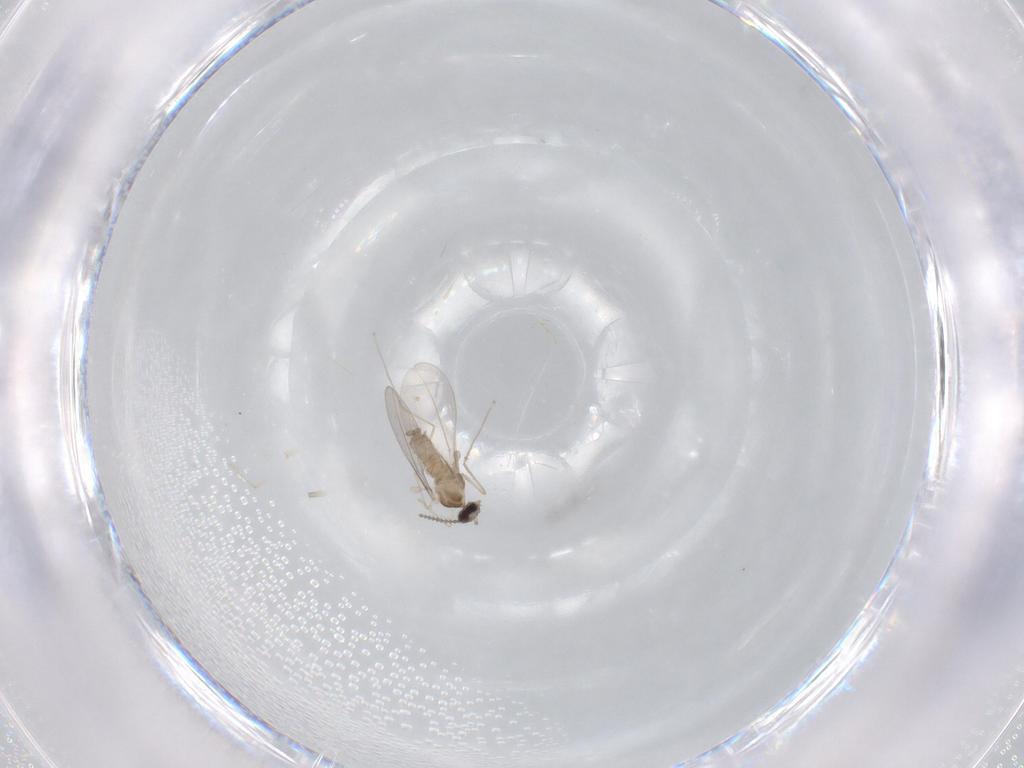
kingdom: Animalia
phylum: Arthropoda
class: Insecta
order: Diptera
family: Cecidomyiidae
